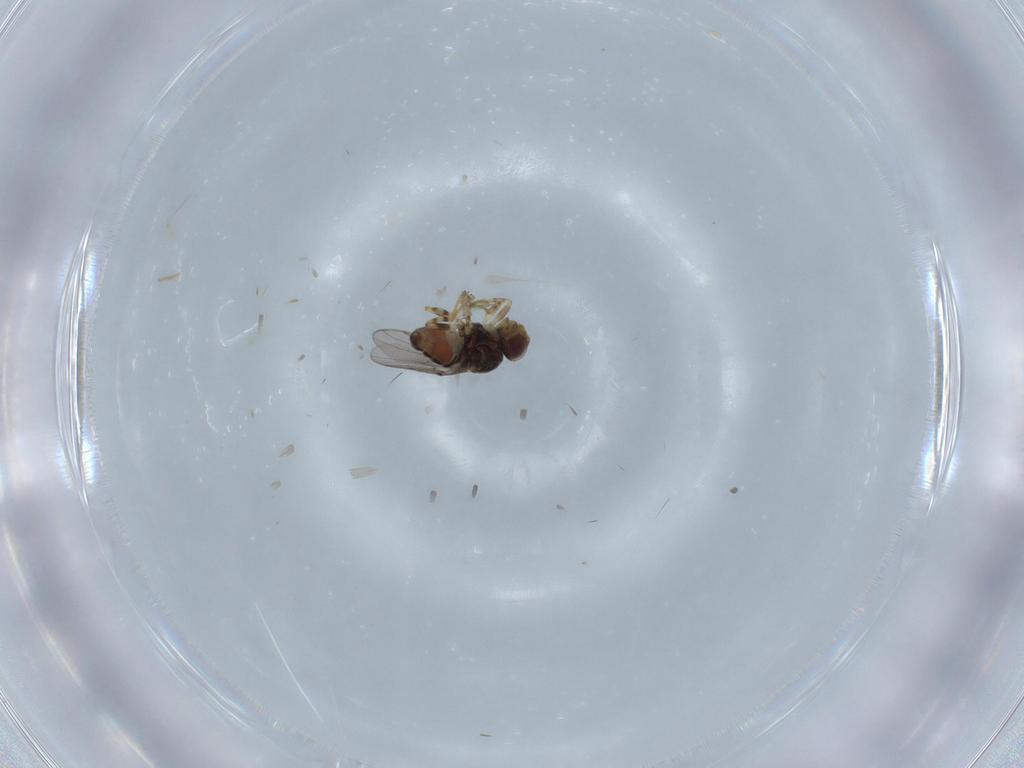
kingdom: Animalia
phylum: Arthropoda
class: Insecta
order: Diptera
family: Chloropidae
